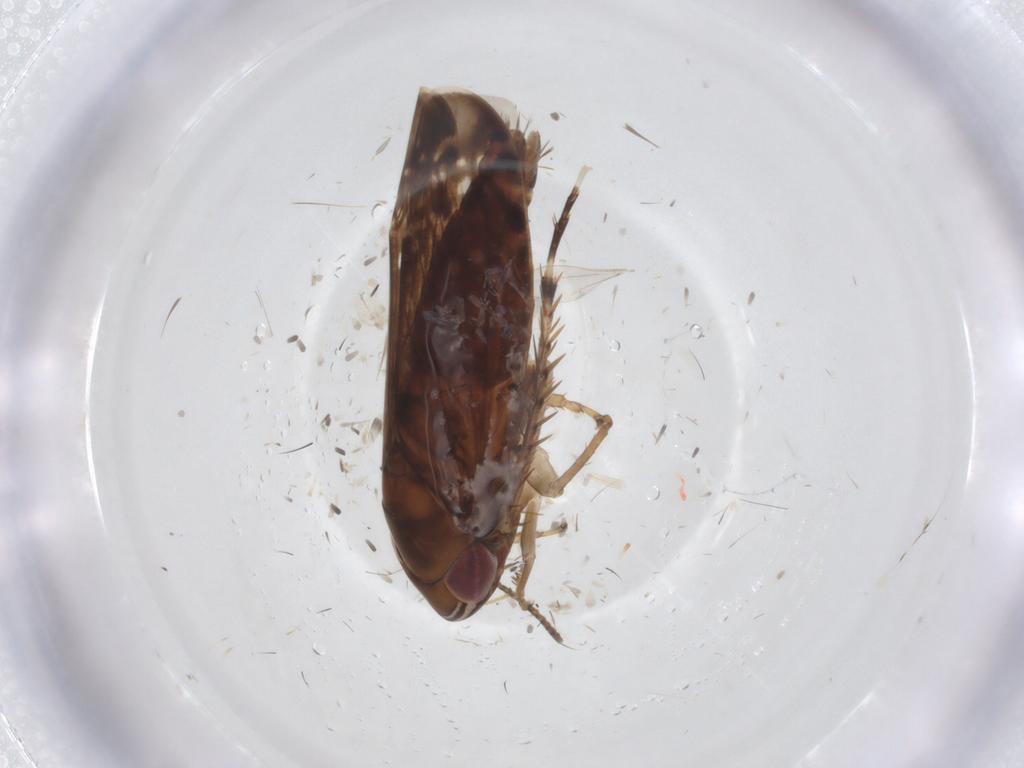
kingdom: Animalia
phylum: Arthropoda
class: Insecta
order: Hemiptera
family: Cicadellidae
